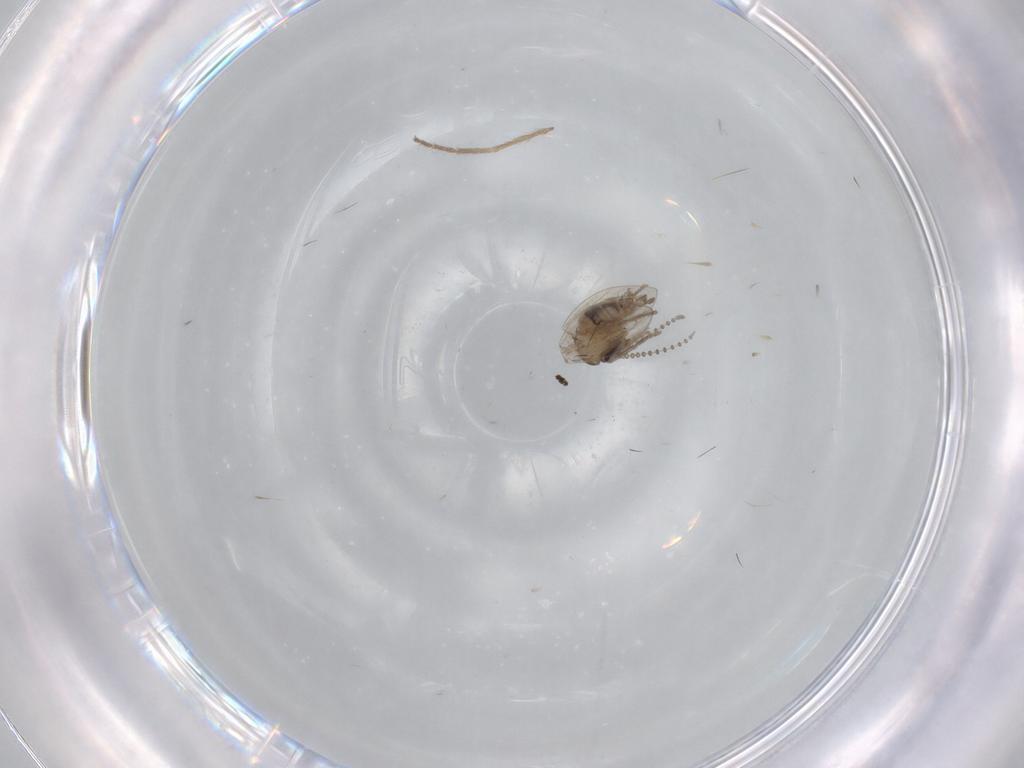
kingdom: Animalia
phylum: Arthropoda
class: Insecta
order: Diptera
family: Psychodidae
